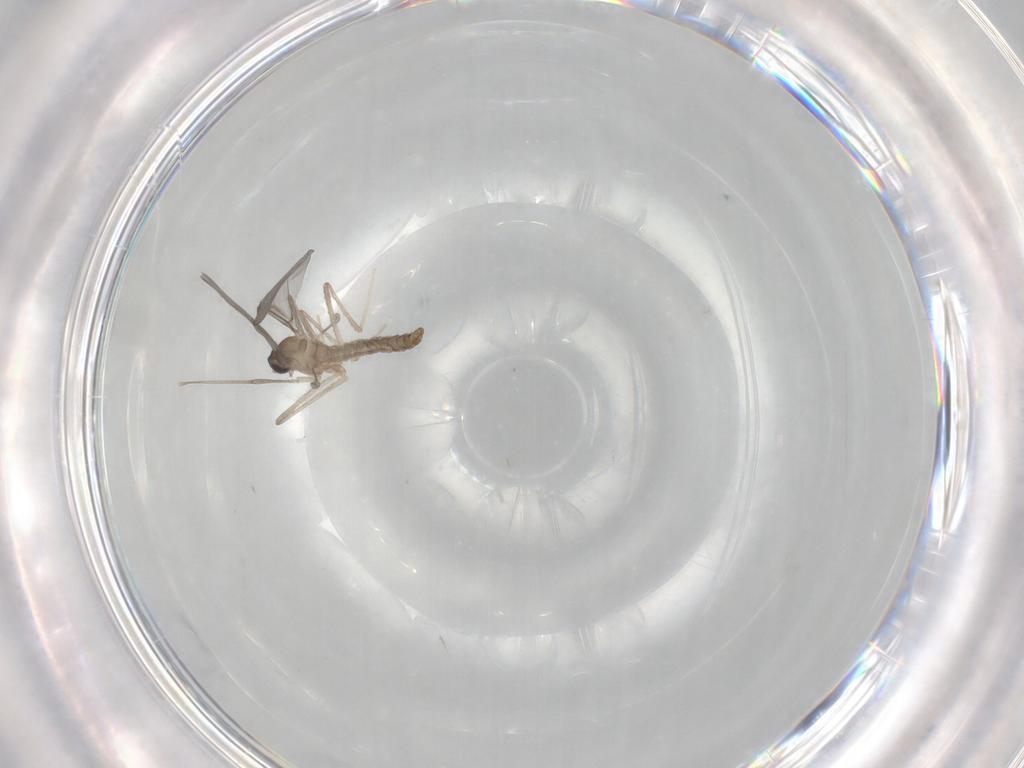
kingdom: Animalia
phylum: Arthropoda
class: Insecta
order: Diptera
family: Cecidomyiidae
